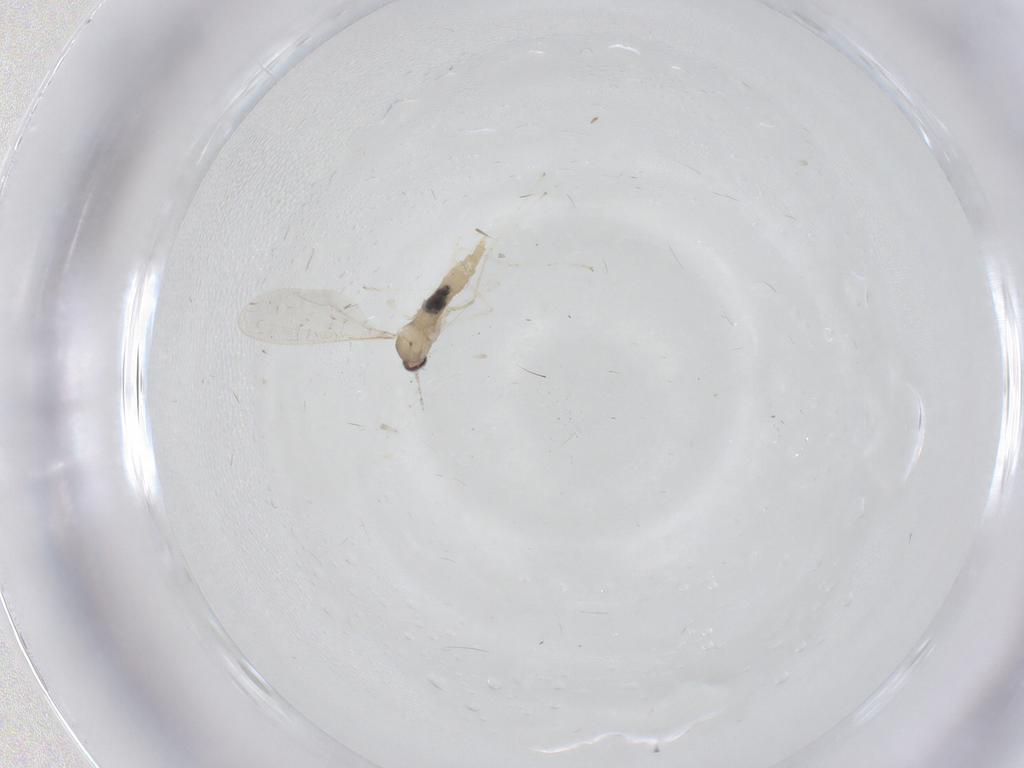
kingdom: Animalia
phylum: Arthropoda
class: Insecta
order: Diptera
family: Cecidomyiidae
